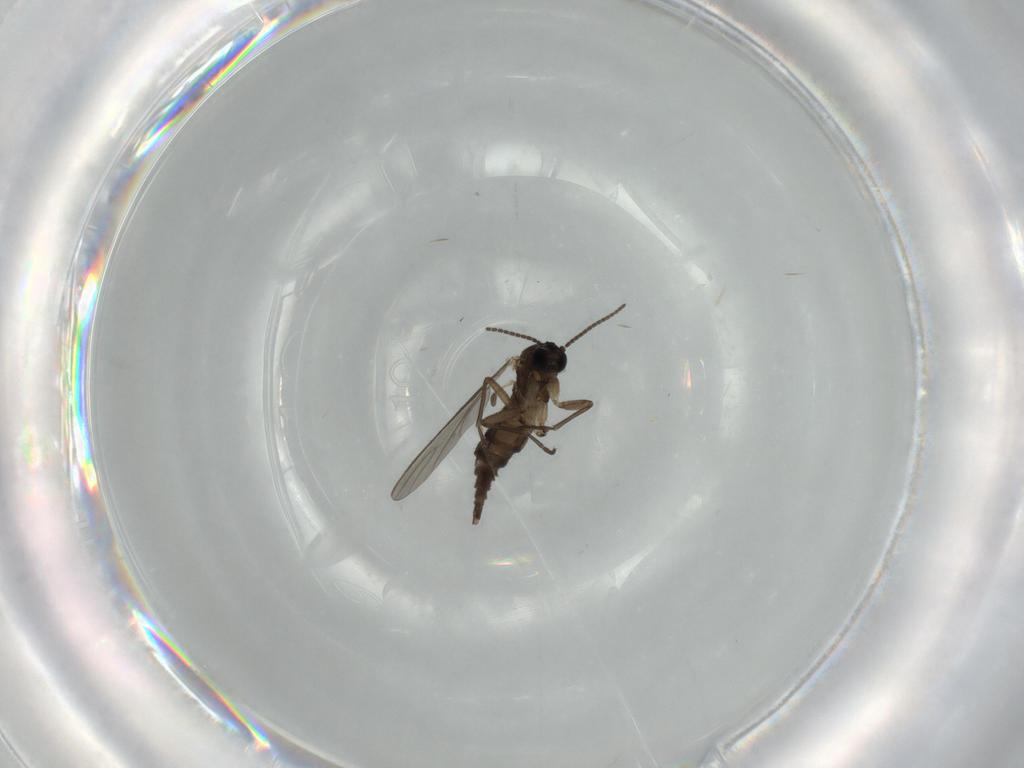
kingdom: Animalia
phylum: Arthropoda
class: Insecta
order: Diptera
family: Sciaridae
